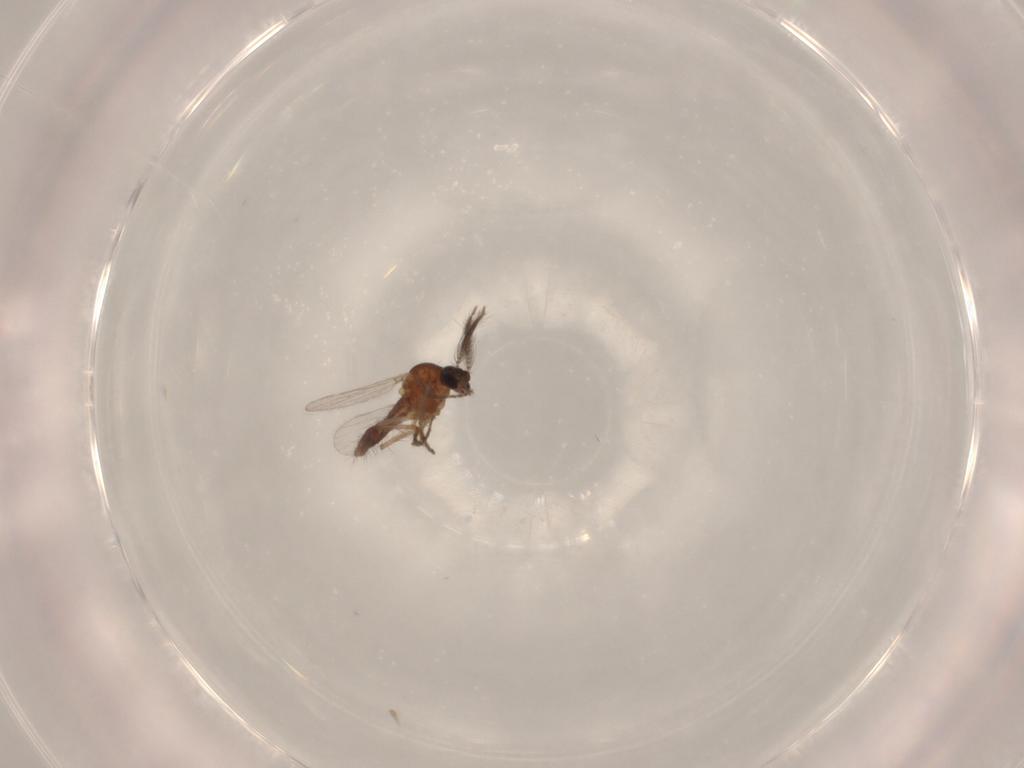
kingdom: Animalia
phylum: Arthropoda
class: Insecta
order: Diptera
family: Ceratopogonidae
